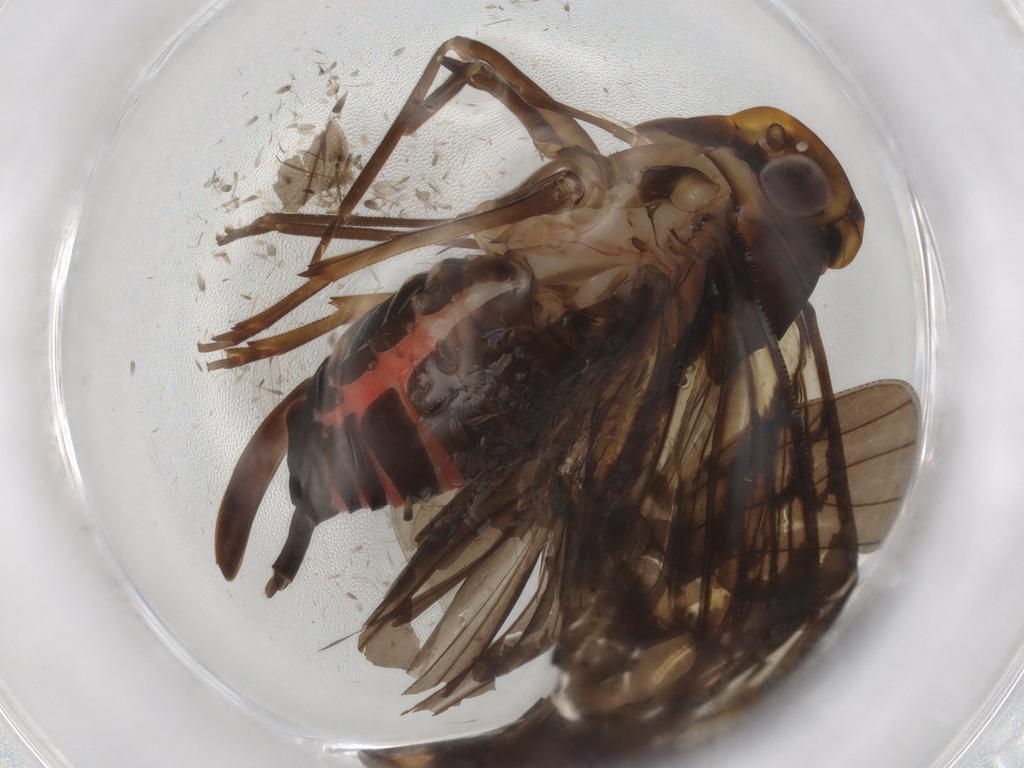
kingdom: Animalia
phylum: Arthropoda
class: Insecta
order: Hemiptera
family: Cixiidae
